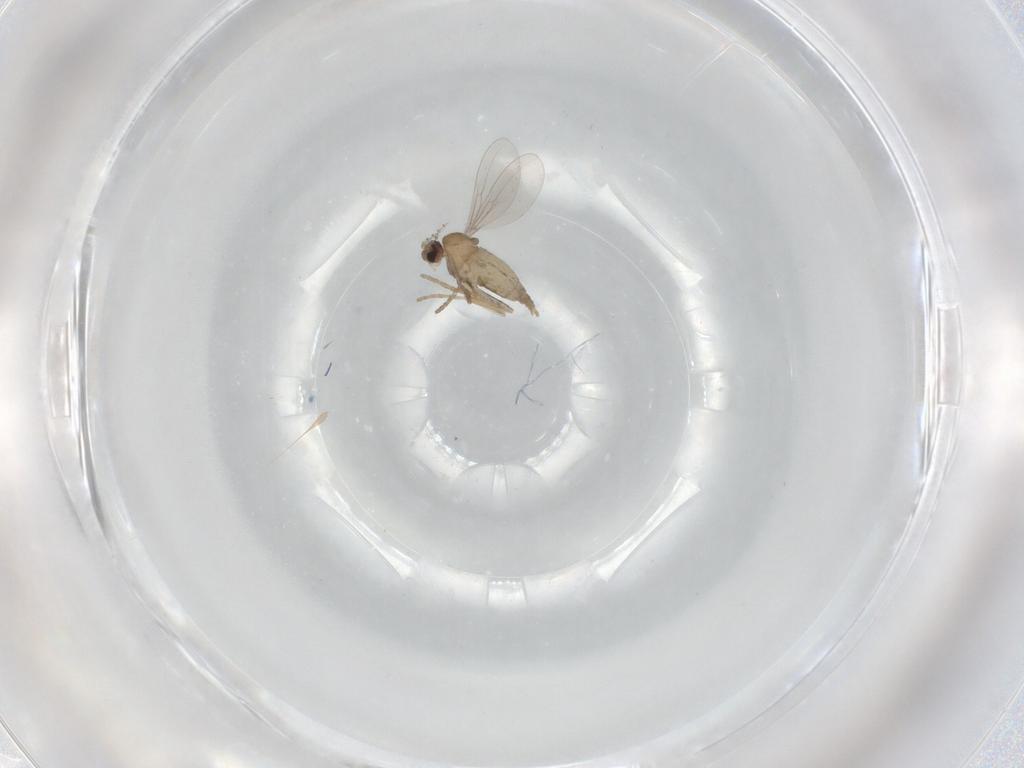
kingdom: Animalia
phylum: Arthropoda
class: Insecta
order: Diptera
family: Cecidomyiidae
